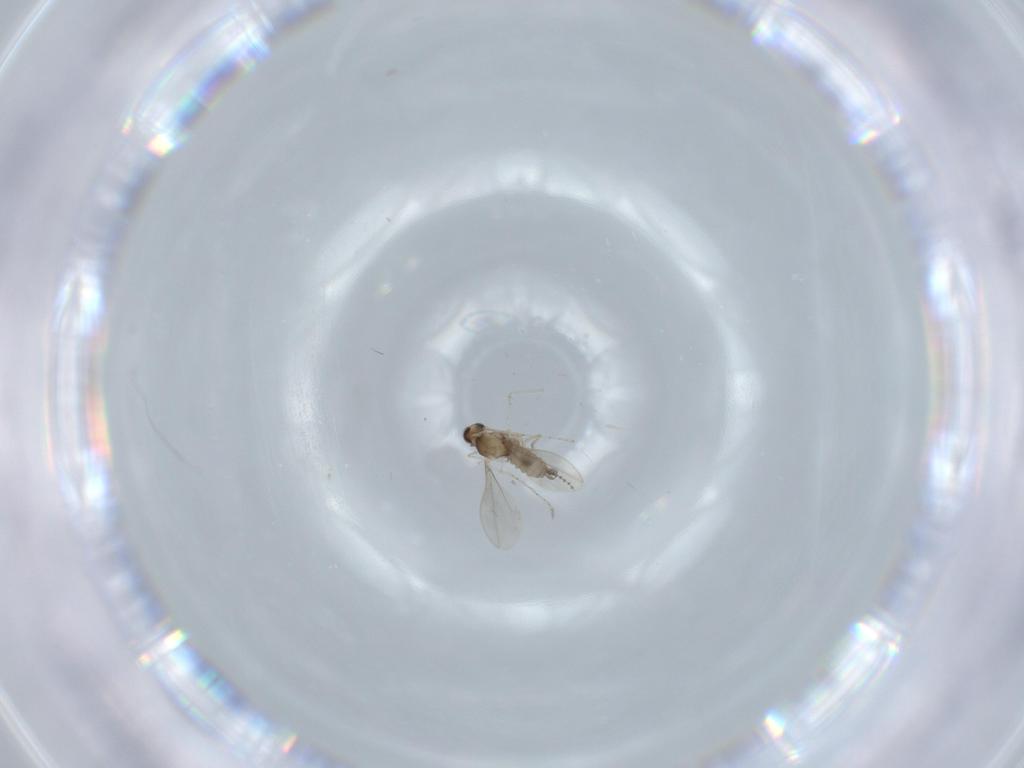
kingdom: Animalia
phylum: Arthropoda
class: Insecta
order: Diptera
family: Cecidomyiidae
